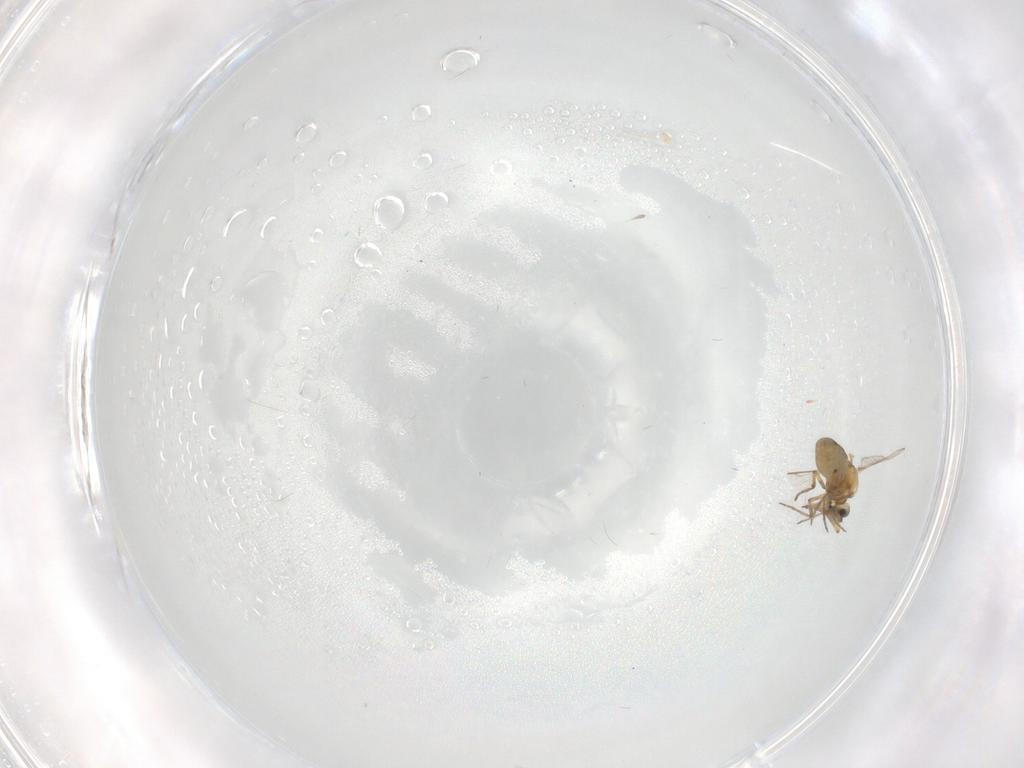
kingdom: Animalia
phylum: Arthropoda
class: Insecta
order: Diptera
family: Ceratopogonidae
